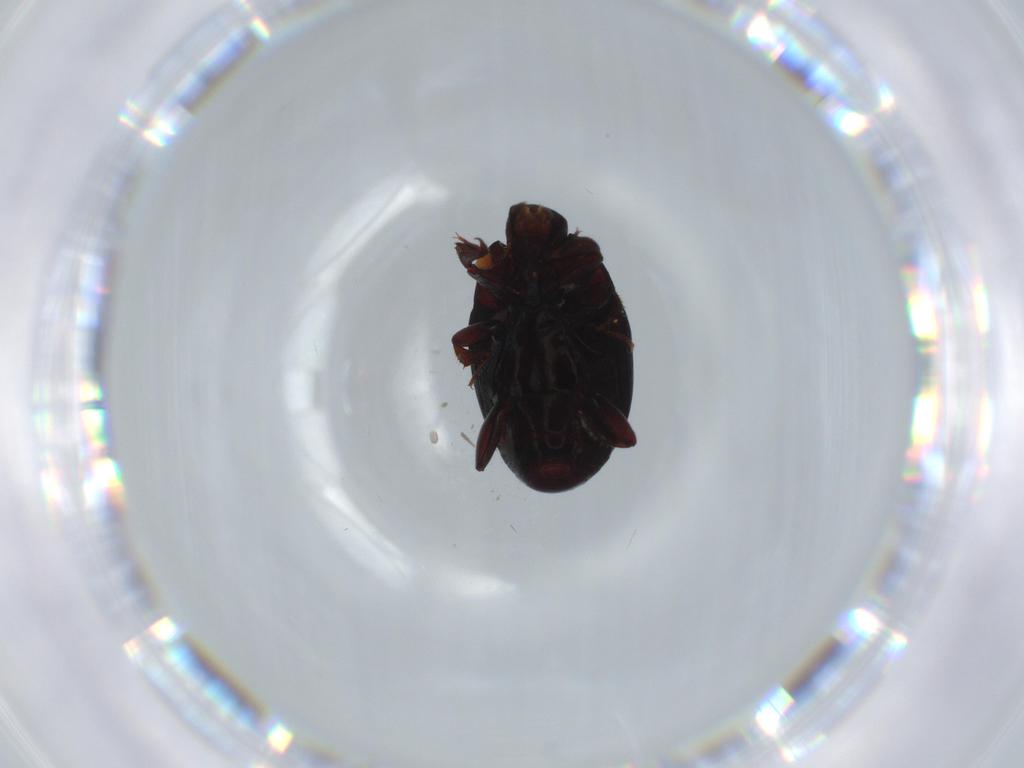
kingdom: Animalia
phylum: Arthropoda
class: Insecta
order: Coleoptera
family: Histeridae
